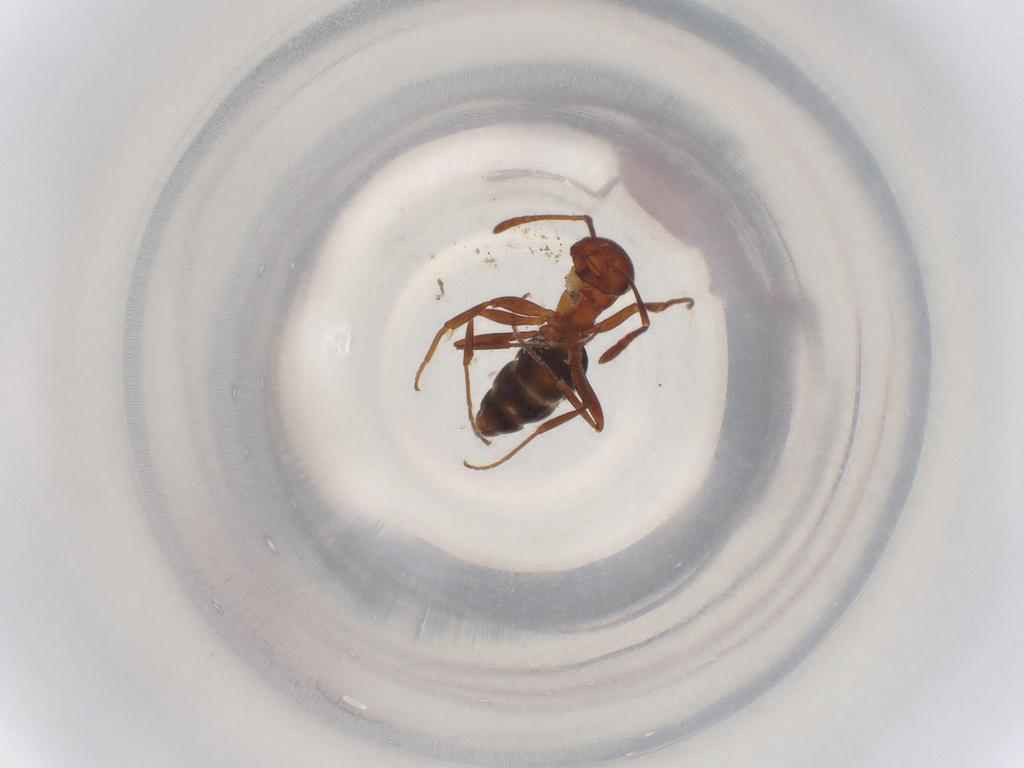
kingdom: Animalia
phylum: Arthropoda
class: Insecta
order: Hymenoptera
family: Formicidae
